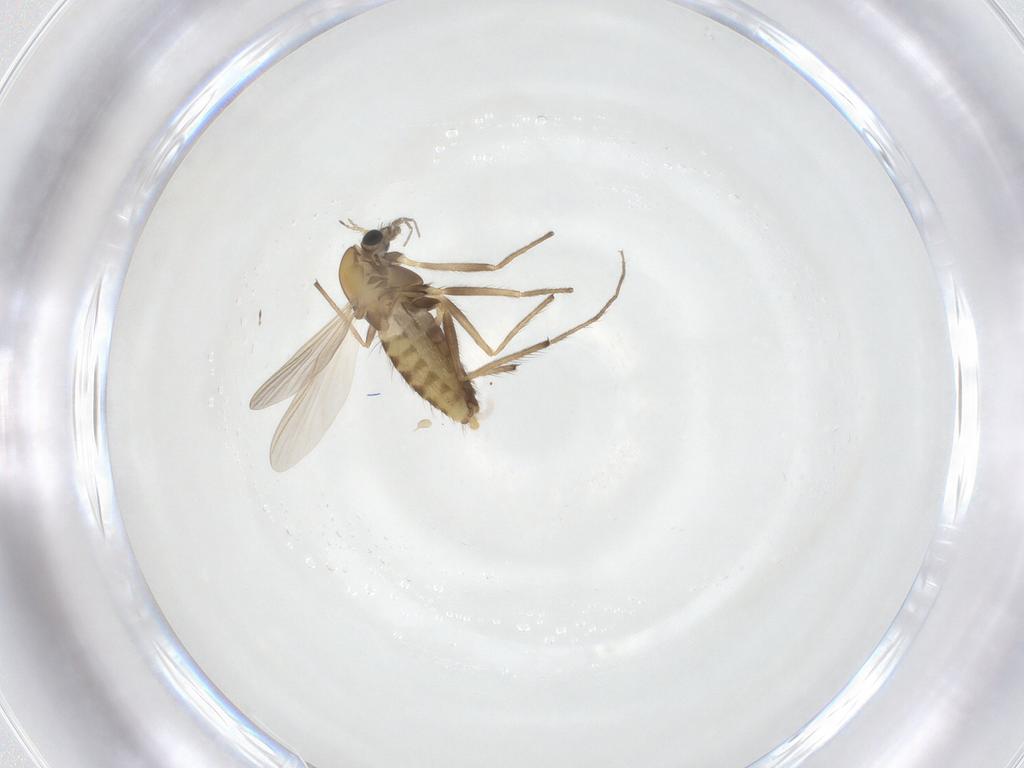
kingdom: Animalia
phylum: Arthropoda
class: Insecta
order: Diptera
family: Chironomidae
